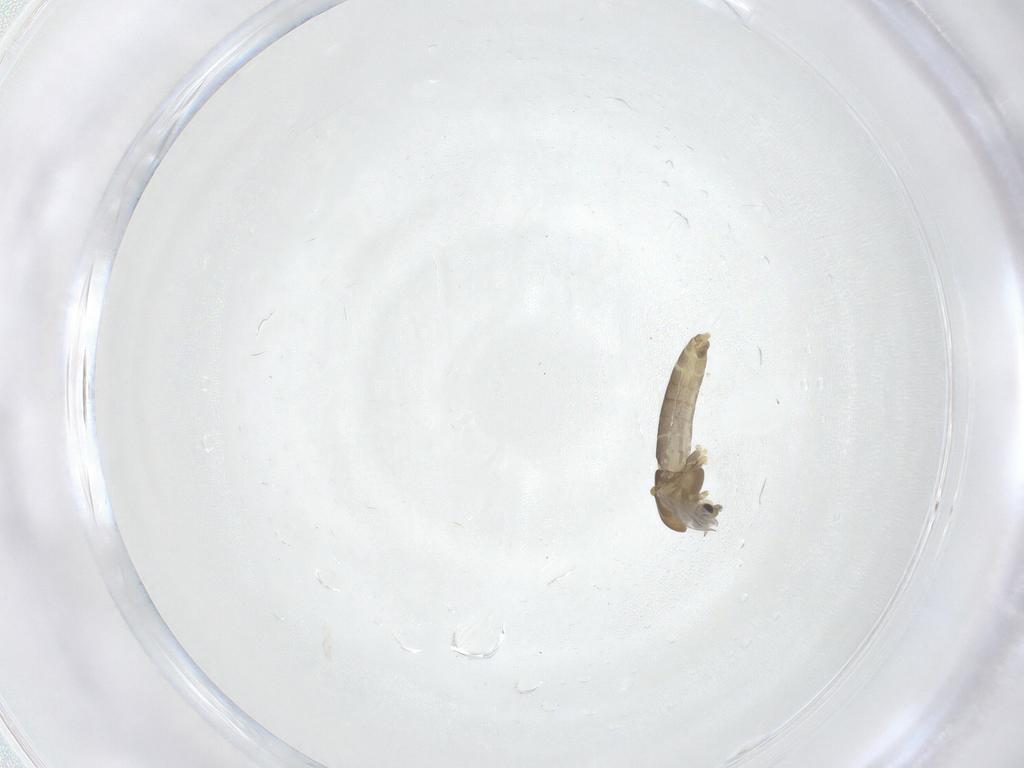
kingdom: Animalia
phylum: Arthropoda
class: Insecta
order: Diptera
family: Chironomidae
